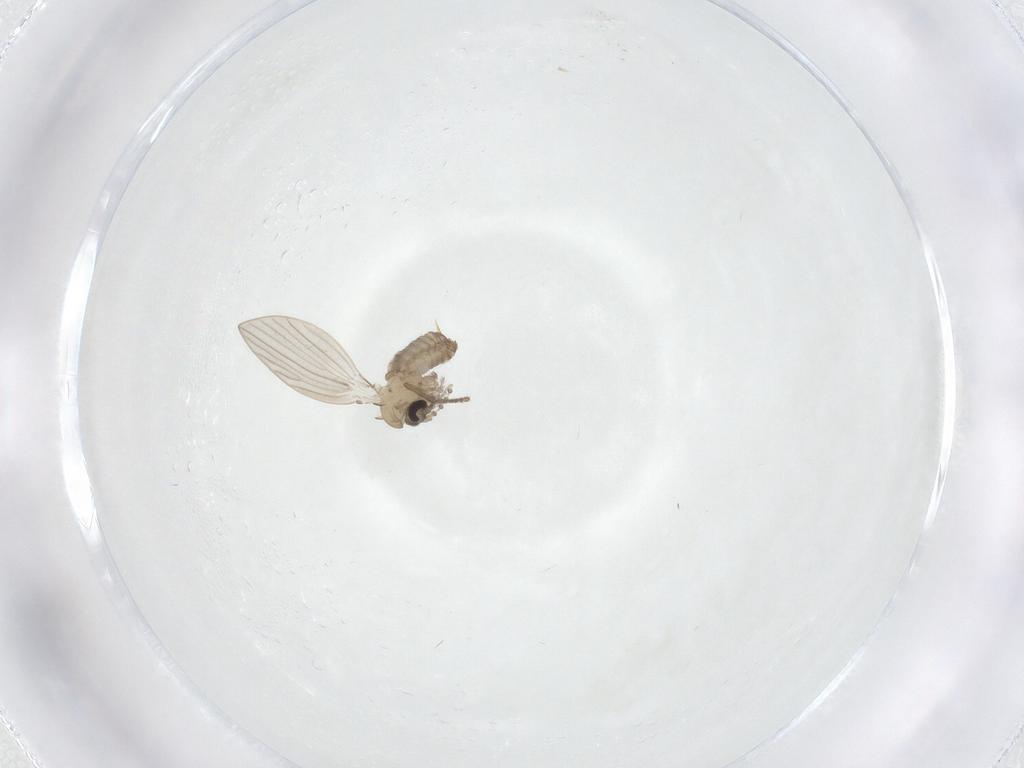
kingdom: Animalia
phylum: Arthropoda
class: Insecta
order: Diptera
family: Psychodidae
